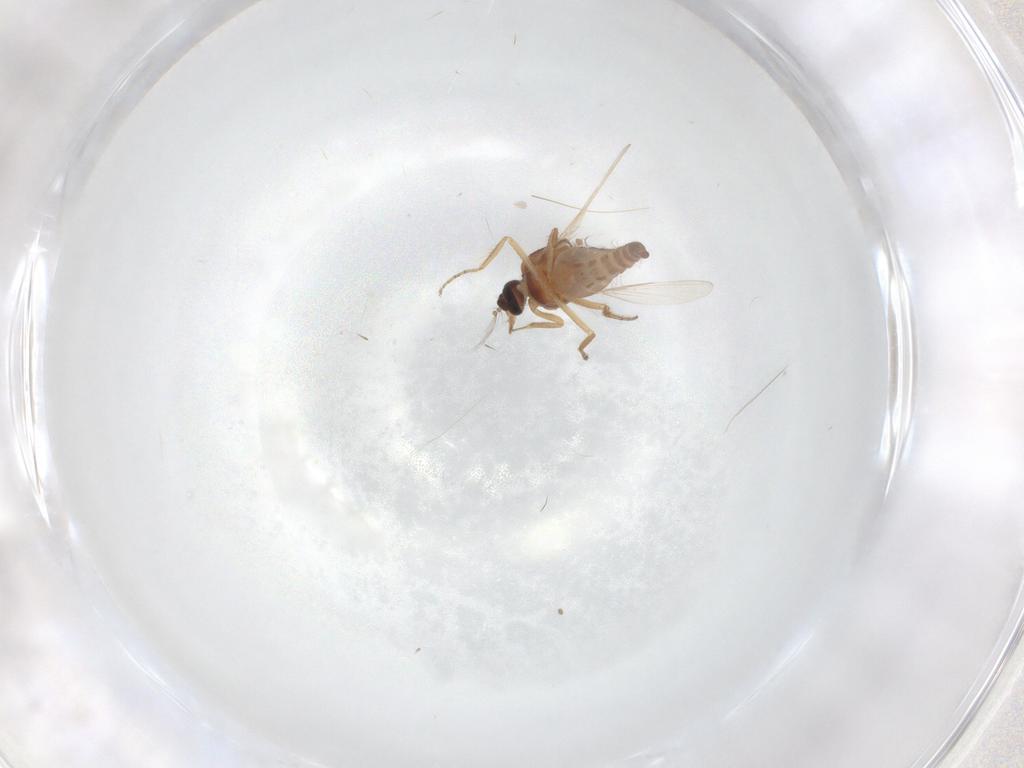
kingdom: Animalia
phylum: Arthropoda
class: Insecta
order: Diptera
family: Ceratopogonidae
